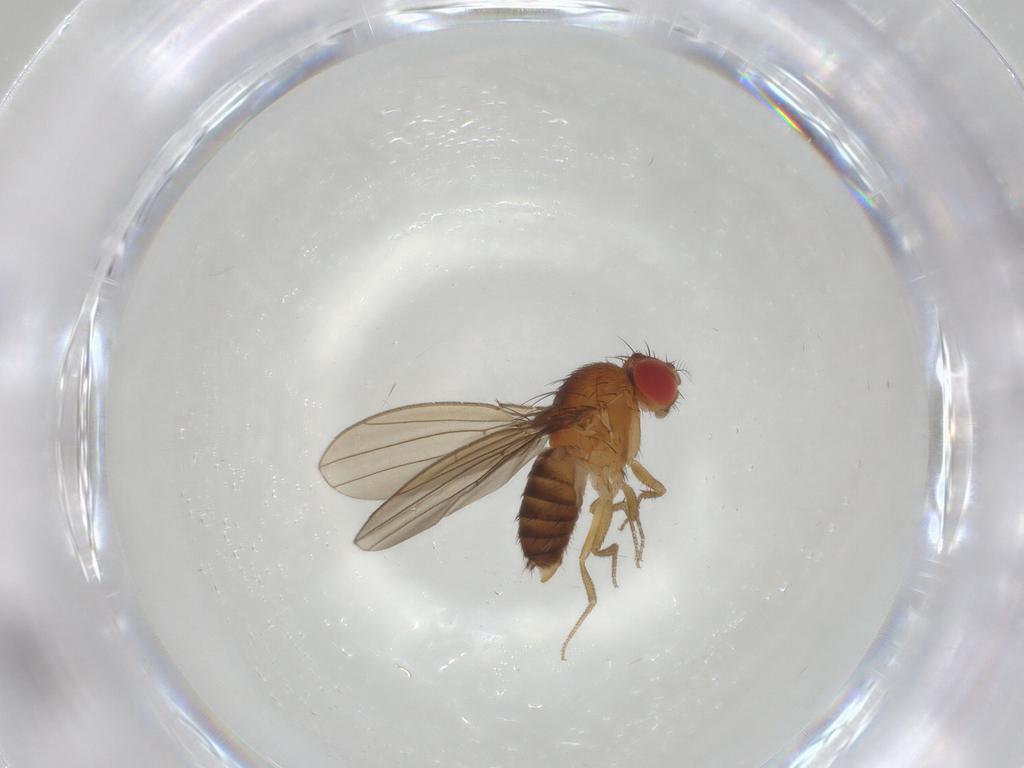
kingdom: Animalia
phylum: Arthropoda
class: Insecta
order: Diptera
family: Drosophilidae
